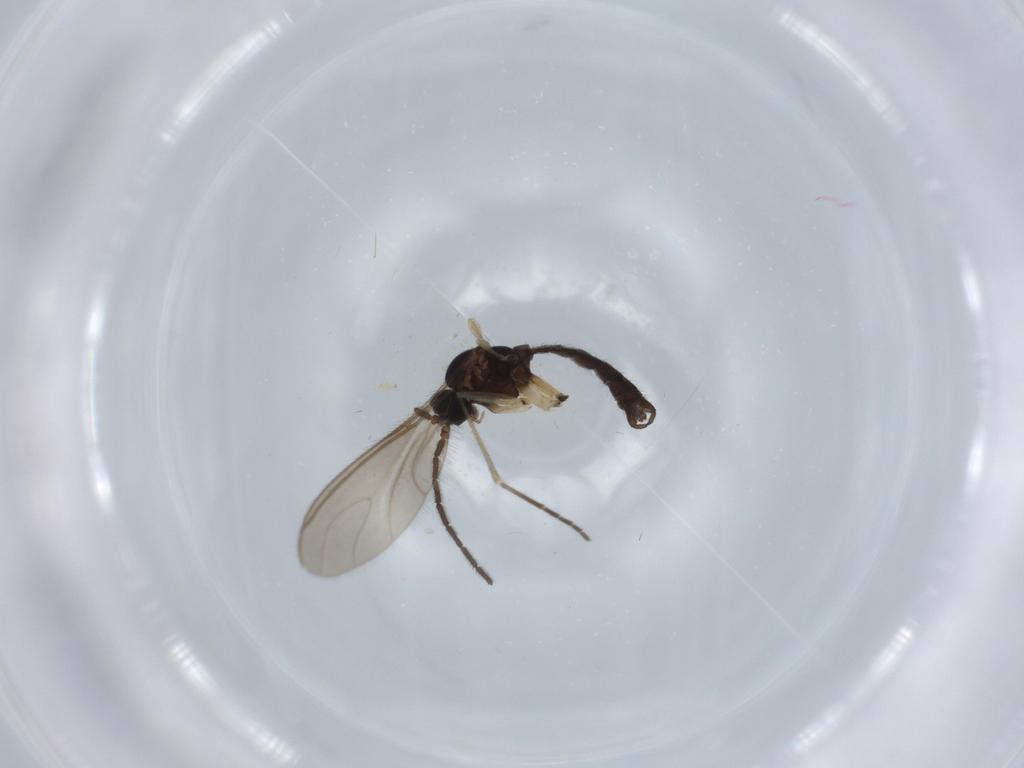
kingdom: Animalia
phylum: Arthropoda
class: Insecta
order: Diptera
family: Sciaridae
